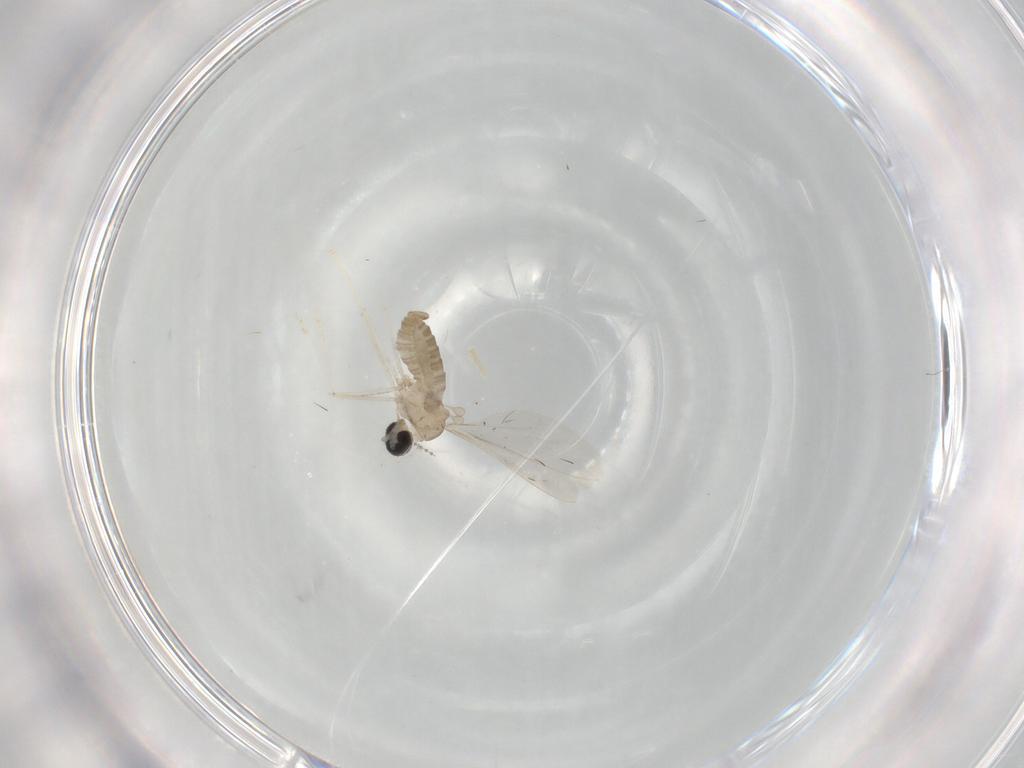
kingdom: Animalia
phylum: Arthropoda
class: Insecta
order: Diptera
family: Cecidomyiidae
